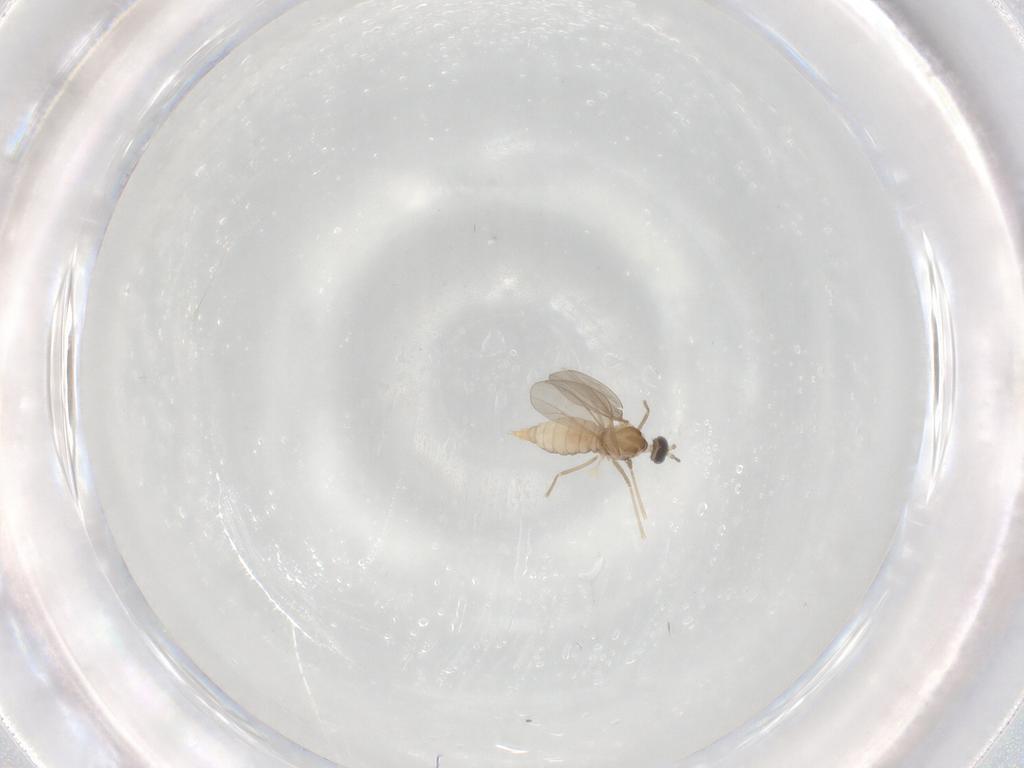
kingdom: Animalia
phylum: Arthropoda
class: Insecta
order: Diptera
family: Cecidomyiidae
